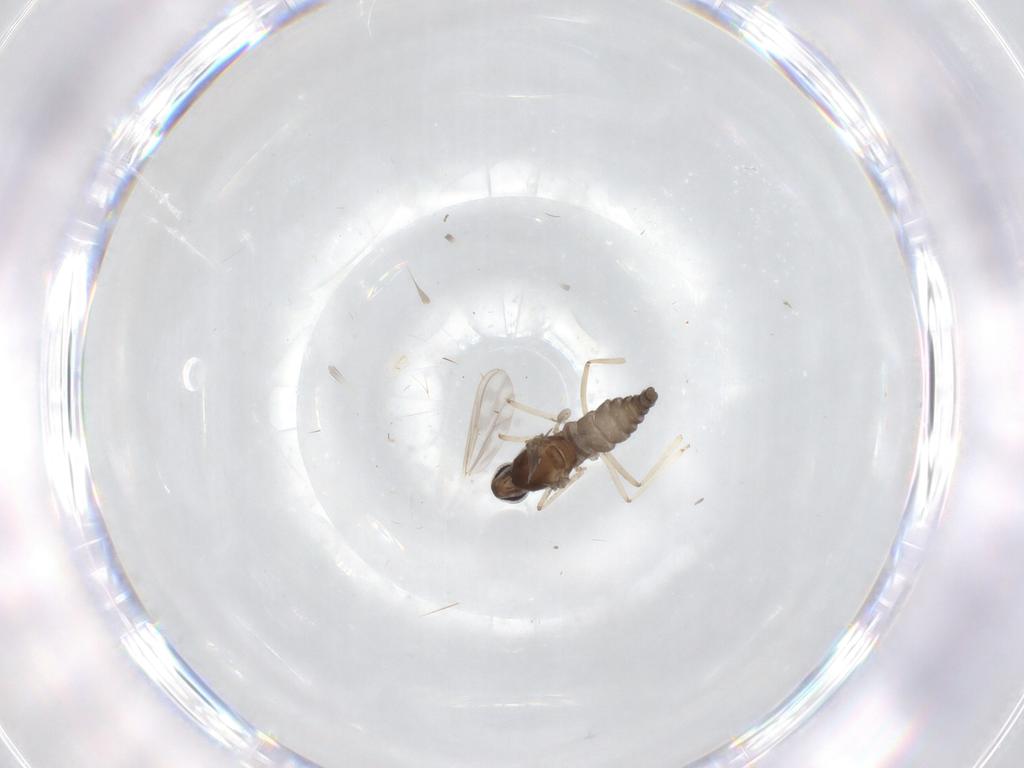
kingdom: Animalia
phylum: Arthropoda
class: Insecta
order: Diptera
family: Cecidomyiidae
